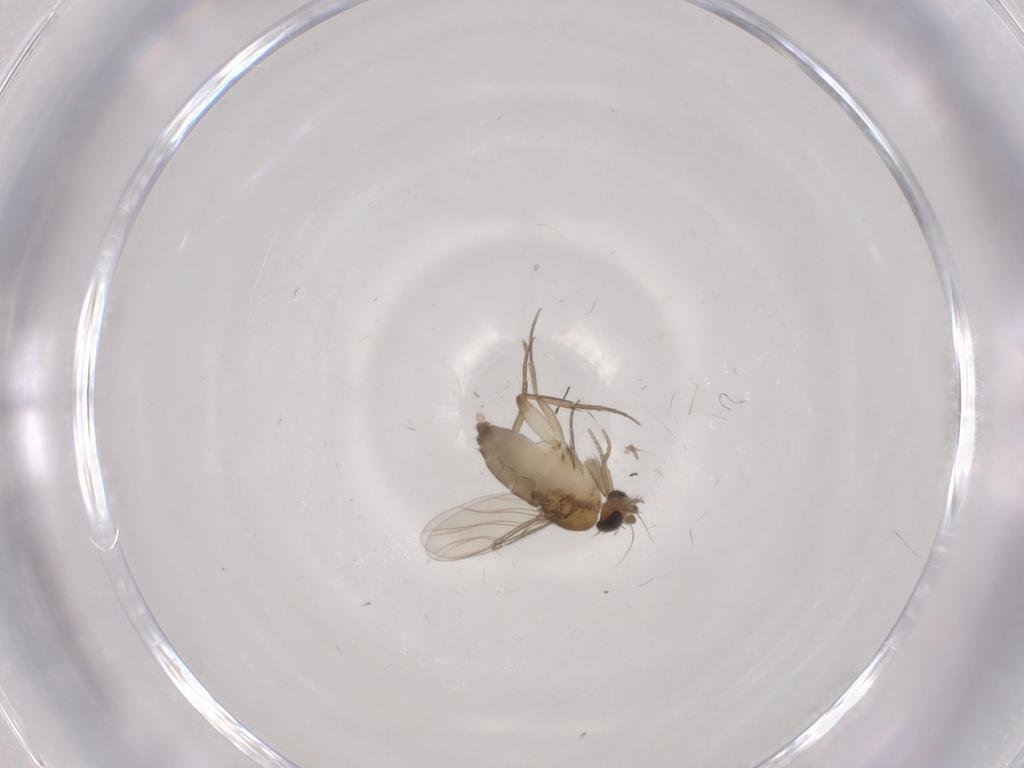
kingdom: Animalia
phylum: Arthropoda
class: Insecta
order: Diptera
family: Phoridae
